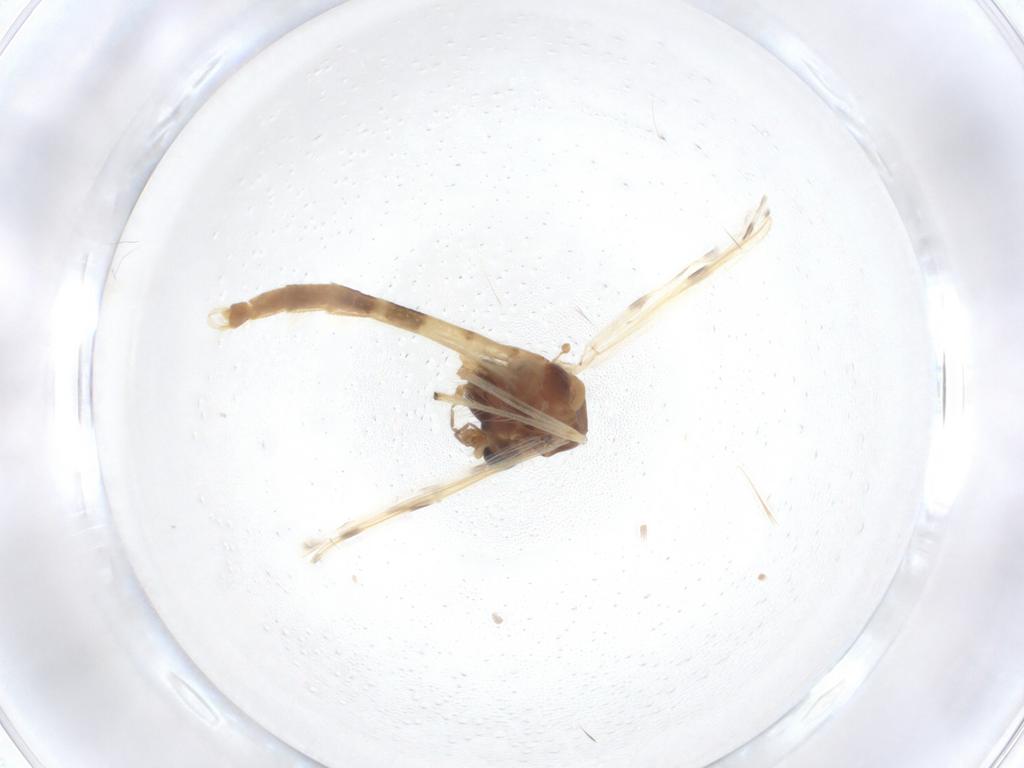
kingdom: Animalia
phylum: Arthropoda
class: Insecta
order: Diptera
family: Chironomidae
